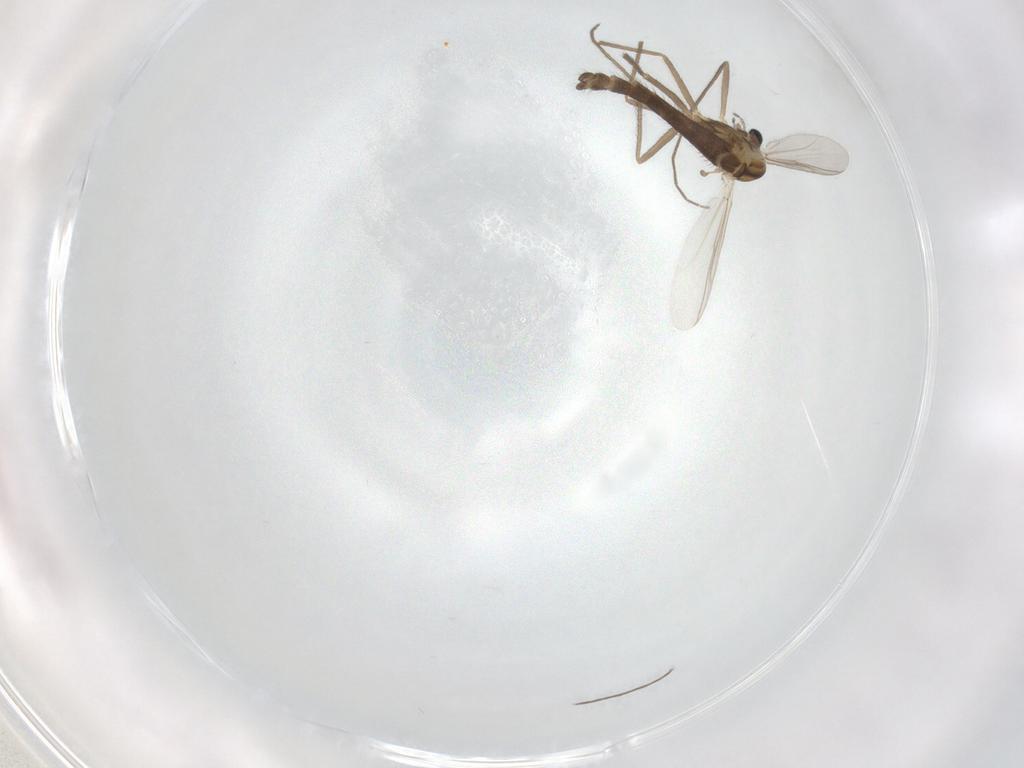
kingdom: Animalia
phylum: Arthropoda
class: Insecta
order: Diptera
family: Chironomidae
